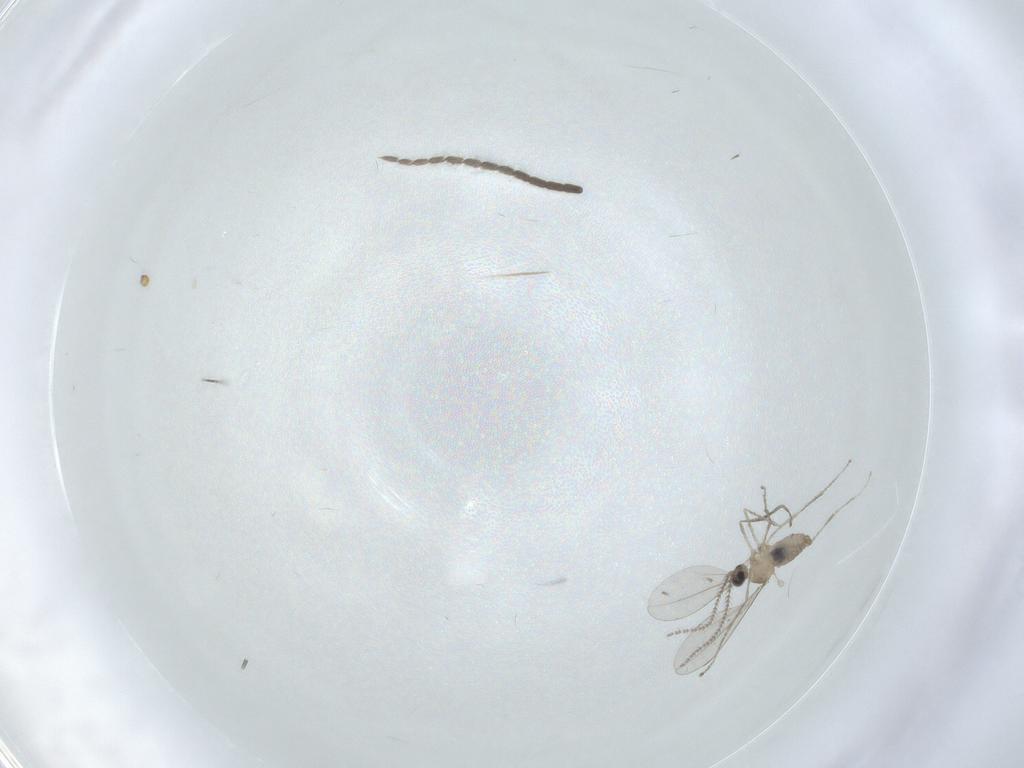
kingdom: Animalia
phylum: Arthropoda
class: Insecta
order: Diptera
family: Cecidomyiidae
